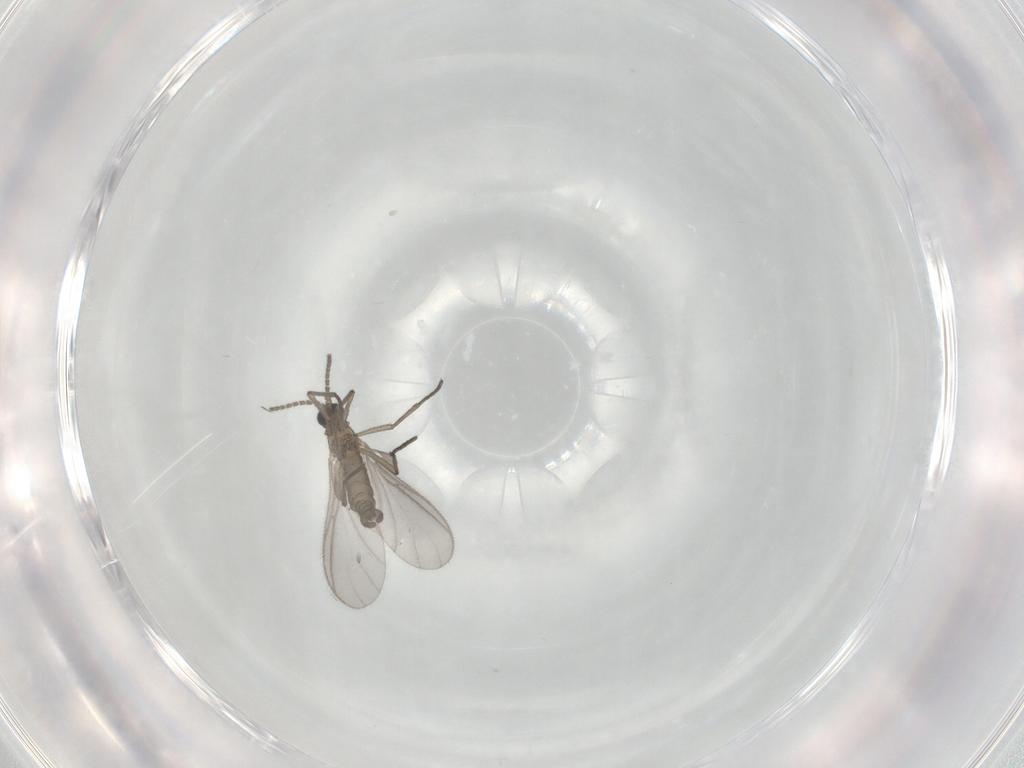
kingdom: Animalia
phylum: Arthropoda
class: Insecta
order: Diptera
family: Sciaridae
